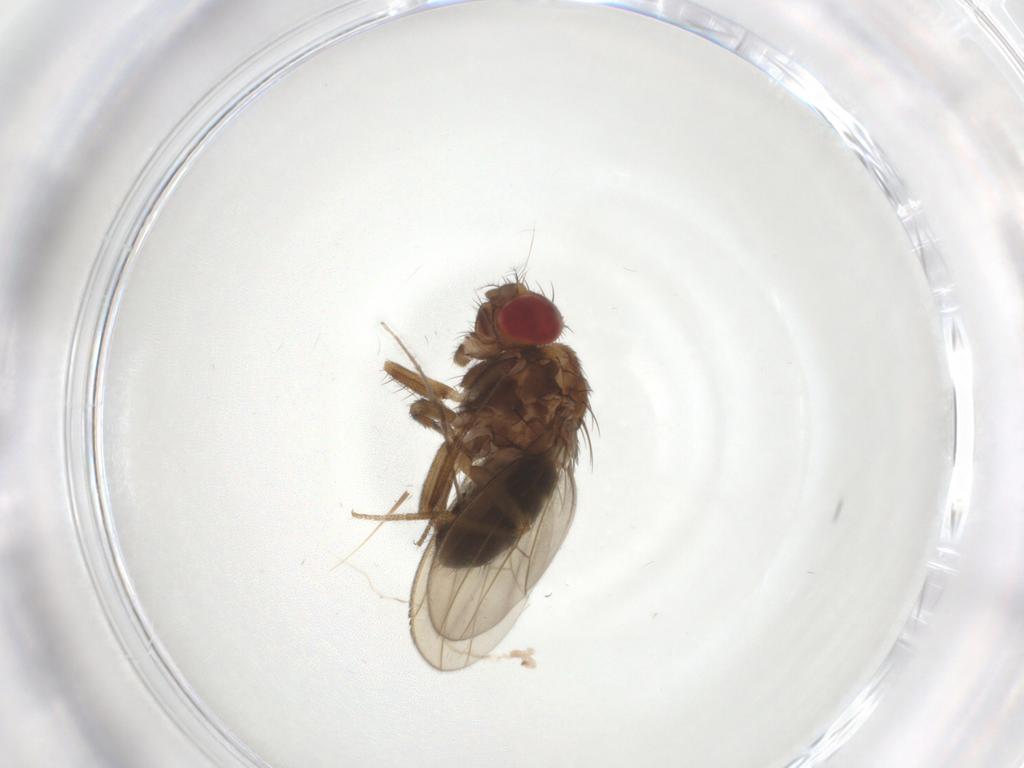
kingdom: Animalia
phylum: Arthropoda
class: Insecta
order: Diptera
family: Drosophilidae
